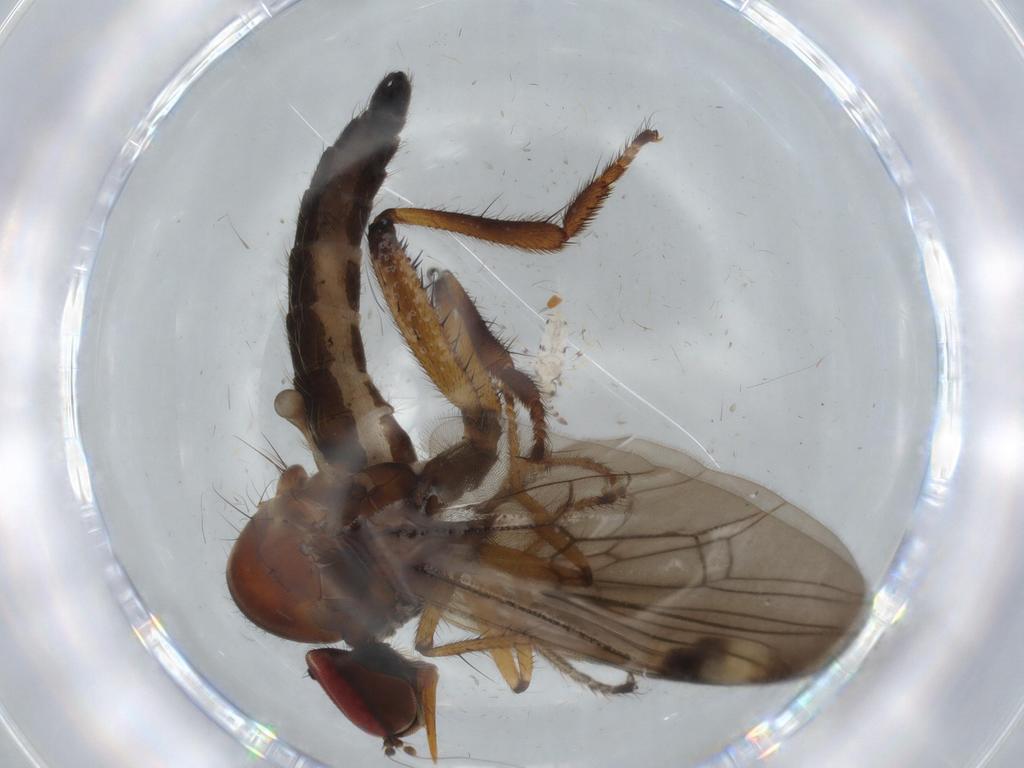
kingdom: Animalia
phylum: Arthropoda
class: Insecta
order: Diptera
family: Hybotidae
